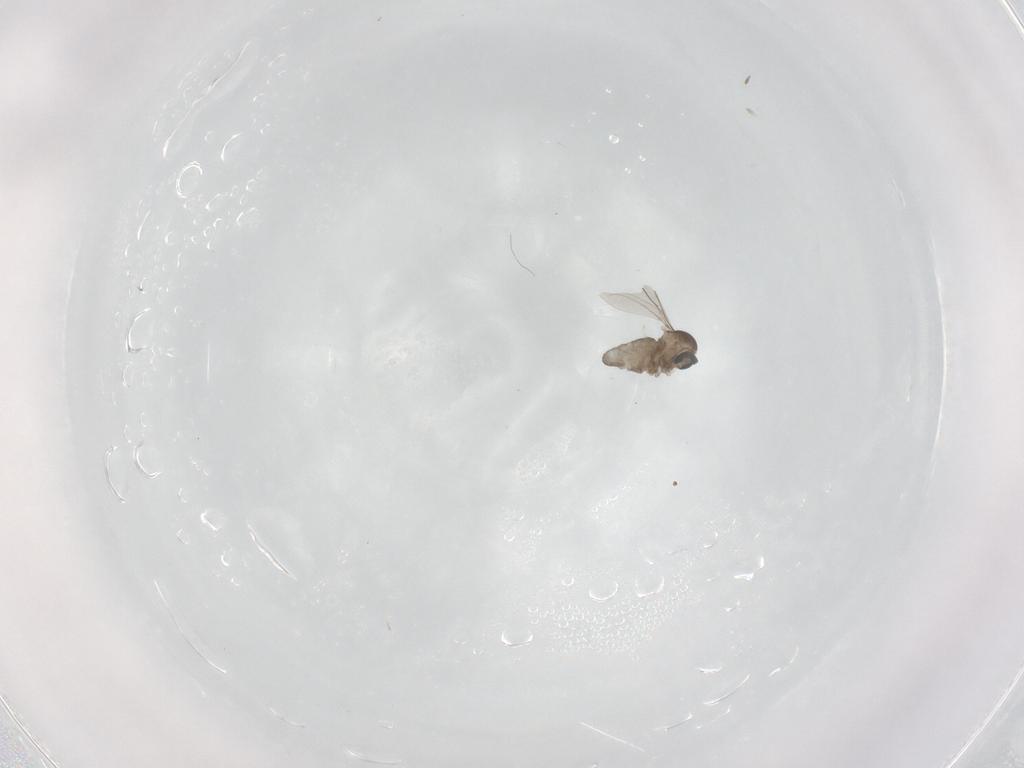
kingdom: Animalia
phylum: Arthropoda
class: Insecta
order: Diptera
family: Cecidomyiidae
